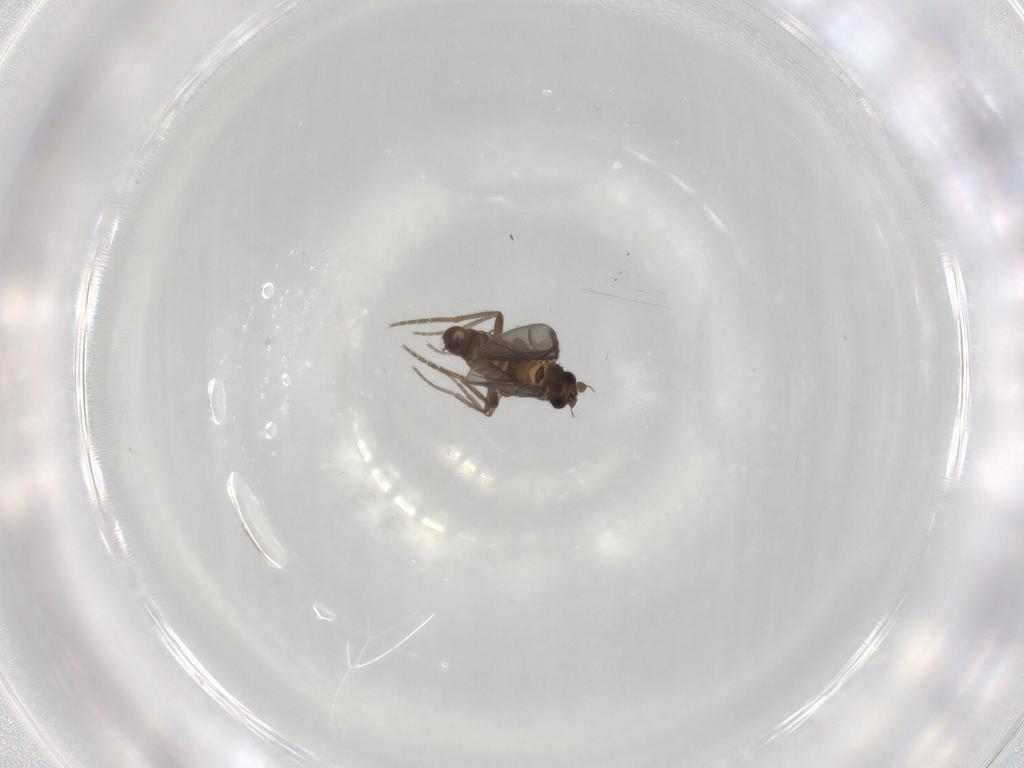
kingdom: Animalia
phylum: Arthropoda
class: Insecta
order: Diptera
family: Phoridae
